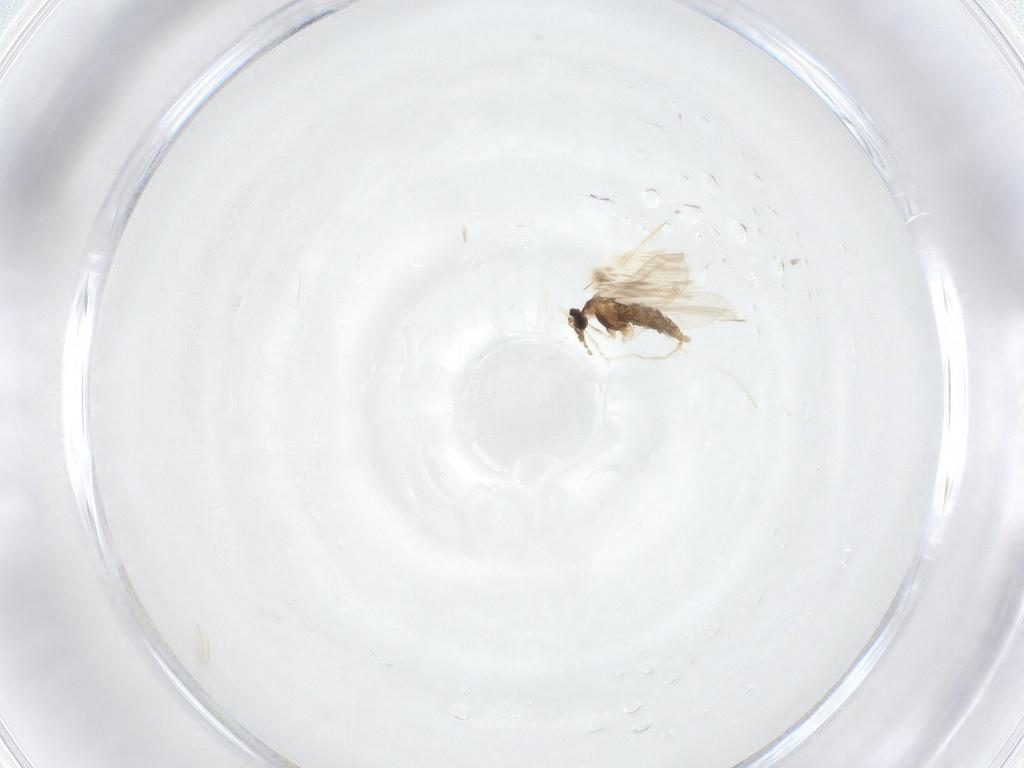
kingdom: Animalia
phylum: Arthropoda
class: Insecta
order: Diptera
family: Cecidomyiidae
